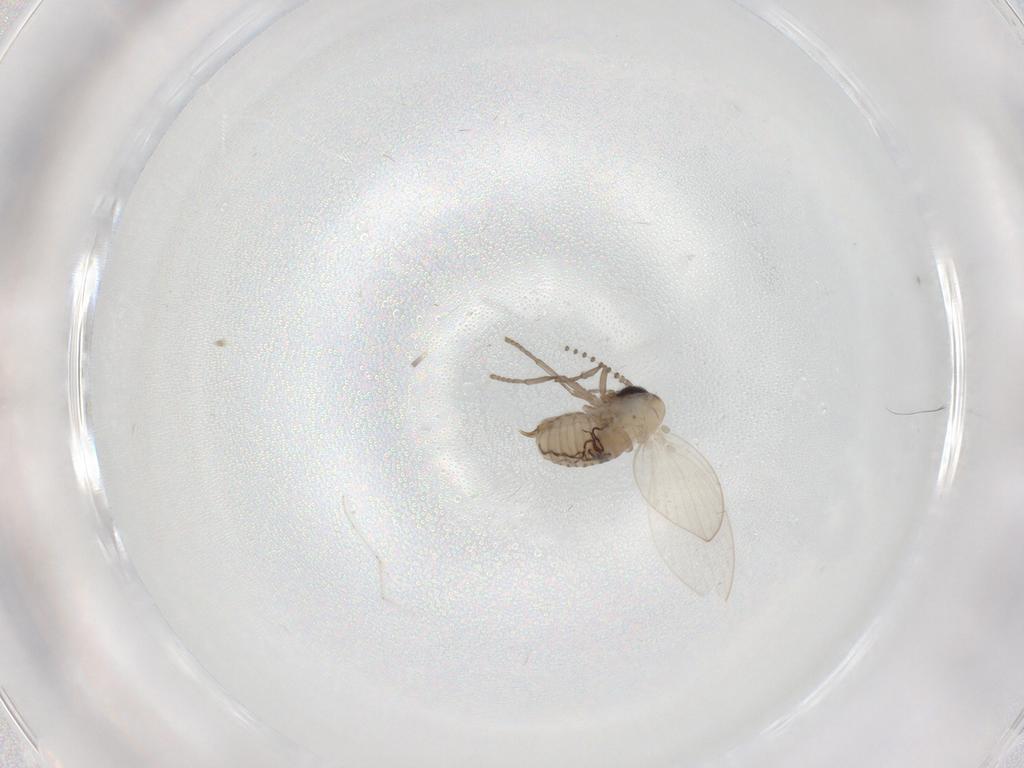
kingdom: Animalia
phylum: Arthropoda
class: Insecta
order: Diptera
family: Psychodidae
